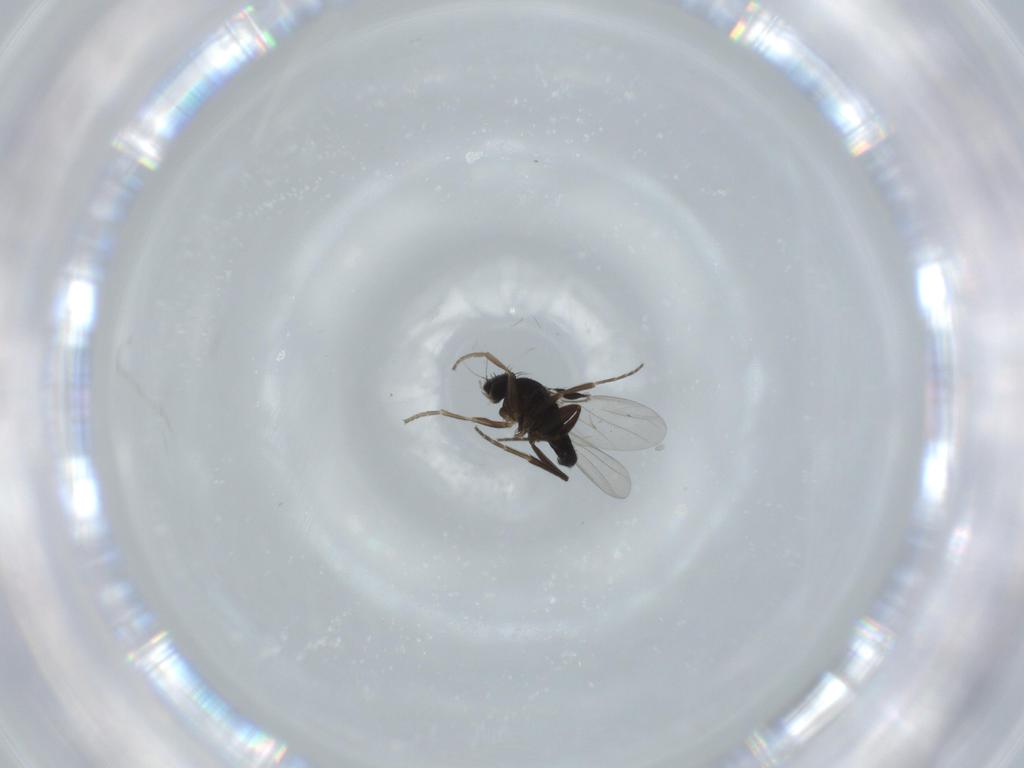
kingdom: Animalia
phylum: Arthropoda
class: Insecta
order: Diptera
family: Phoridae
